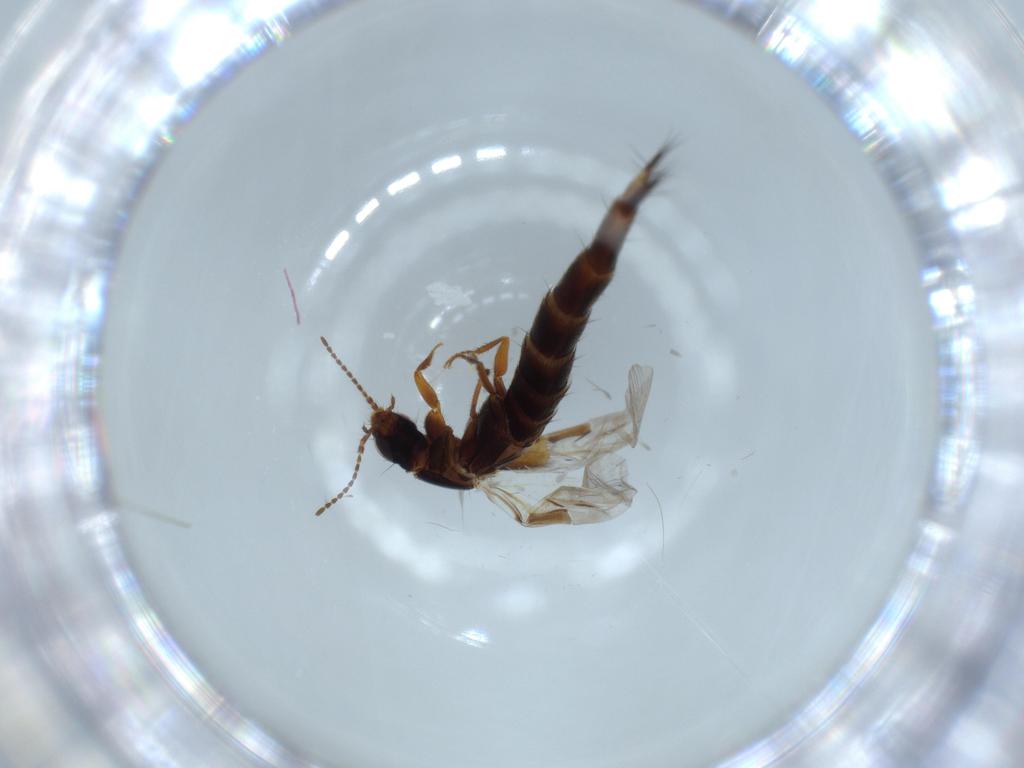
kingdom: Animalia
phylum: Arthropoda
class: Insecta
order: Coleoptera
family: Staphylinidae
